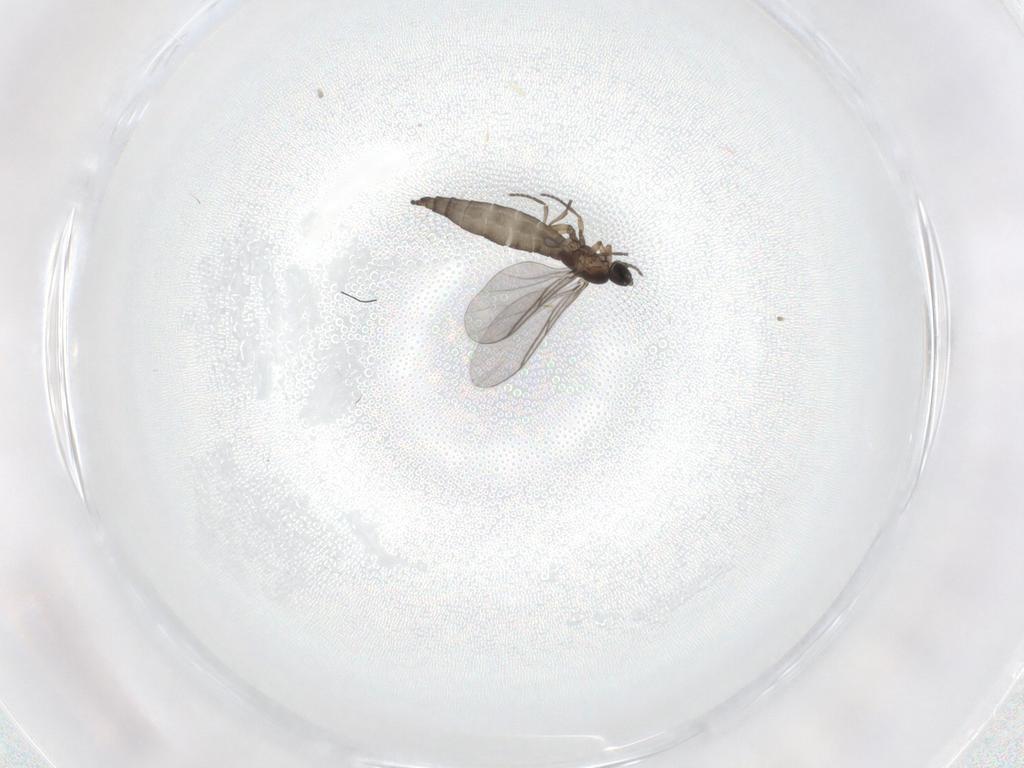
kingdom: Animalia
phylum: Arthropoda
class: Insecta
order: Diptera
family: Sciaridae
